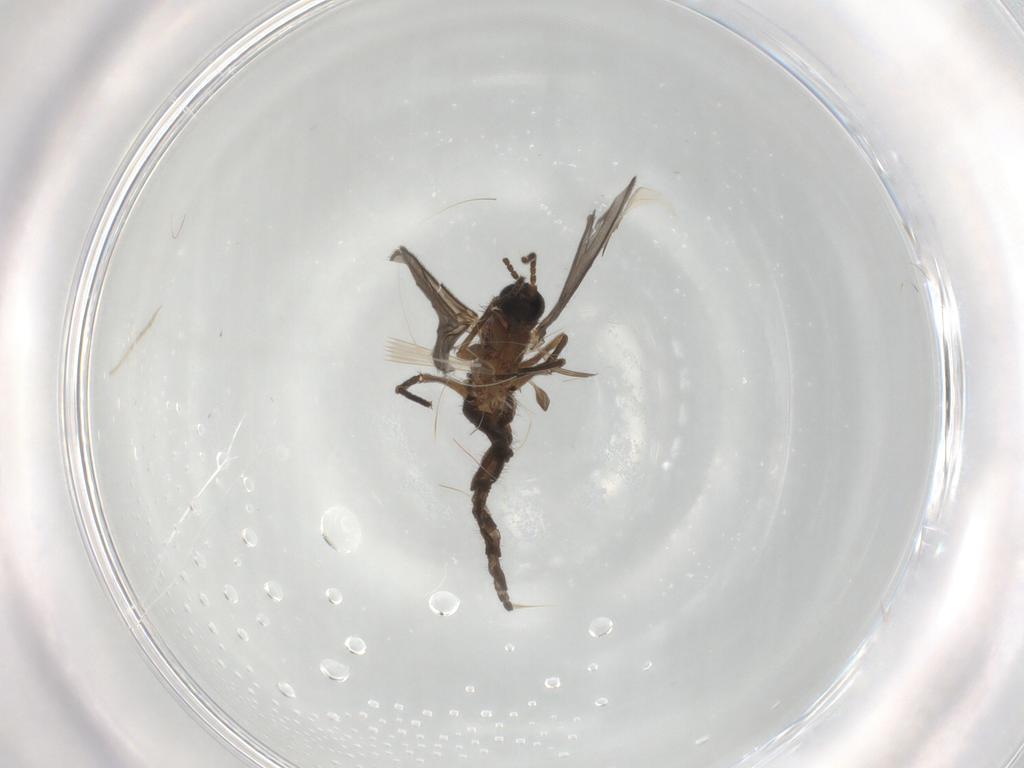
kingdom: Animalia
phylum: Arthropoda
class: Insecta
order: Diptera
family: Sciaridae
